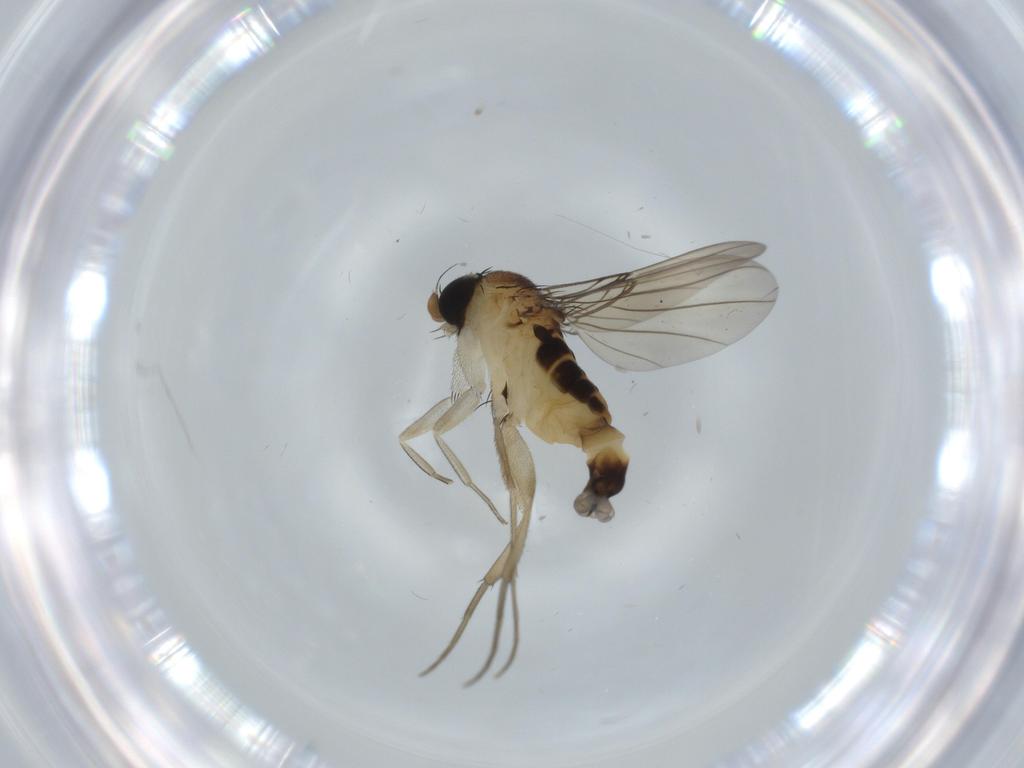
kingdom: Animalia
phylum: Arthropoda
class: Insecta
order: Diptera
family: Phoridae
